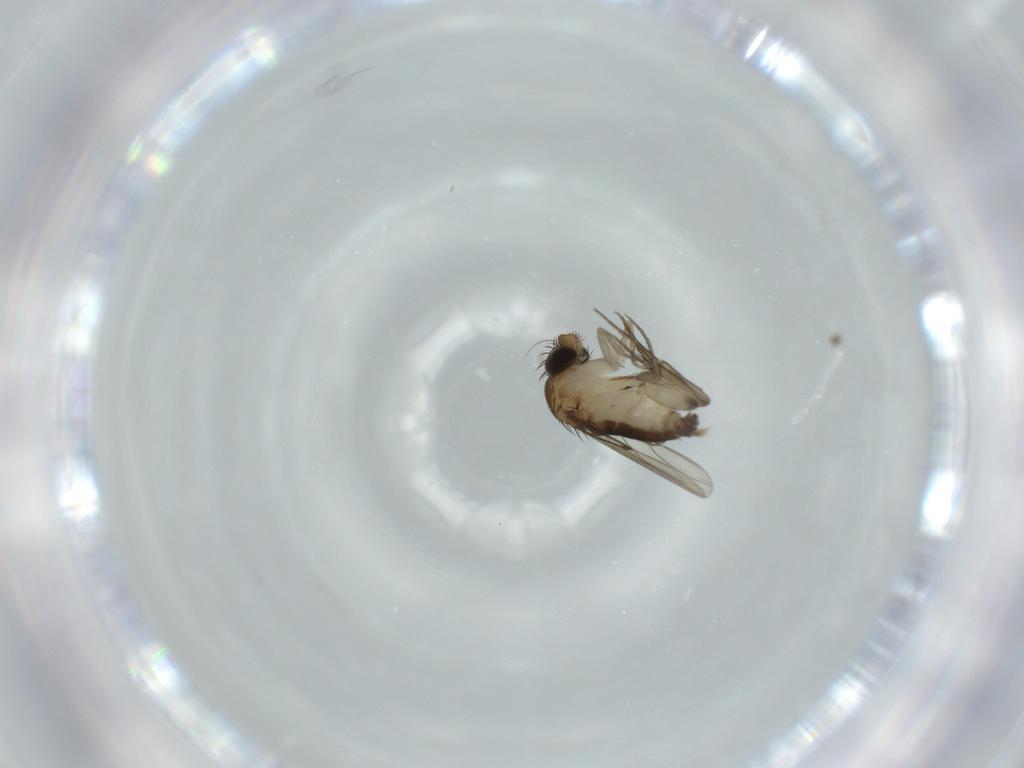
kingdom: Animalia
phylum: Arthropoda
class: Insecta
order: Diptera
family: Phoridae
